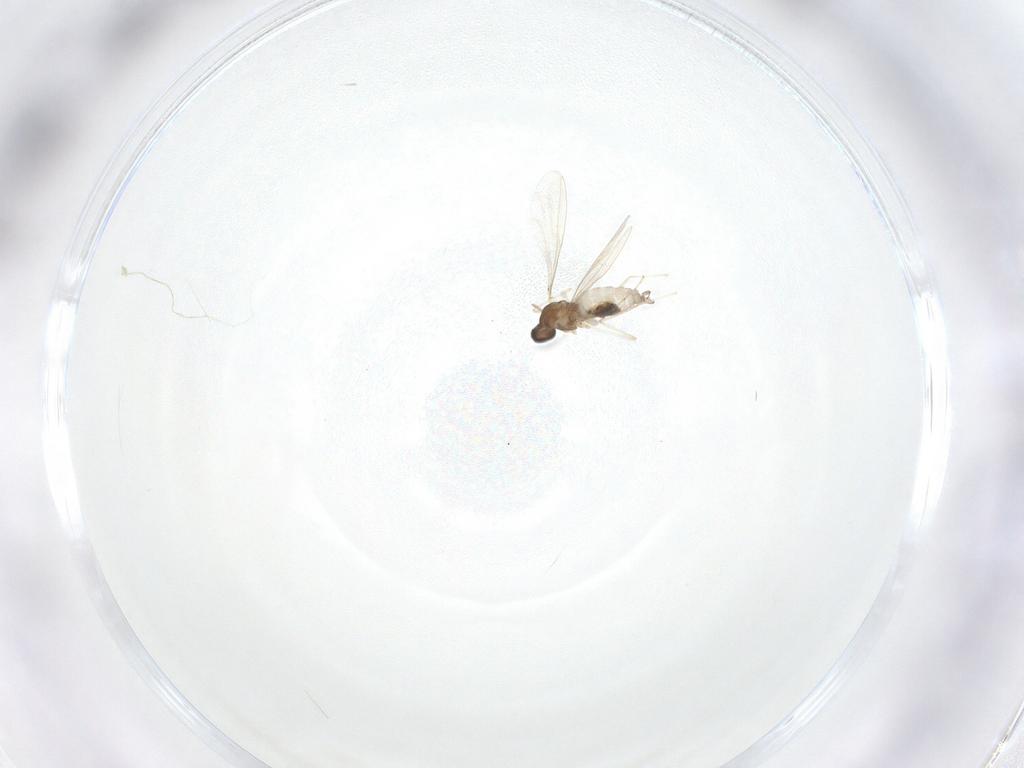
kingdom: Animalia
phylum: Arthropoda
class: Insecta
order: Diptera
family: Cecidomyiidae
